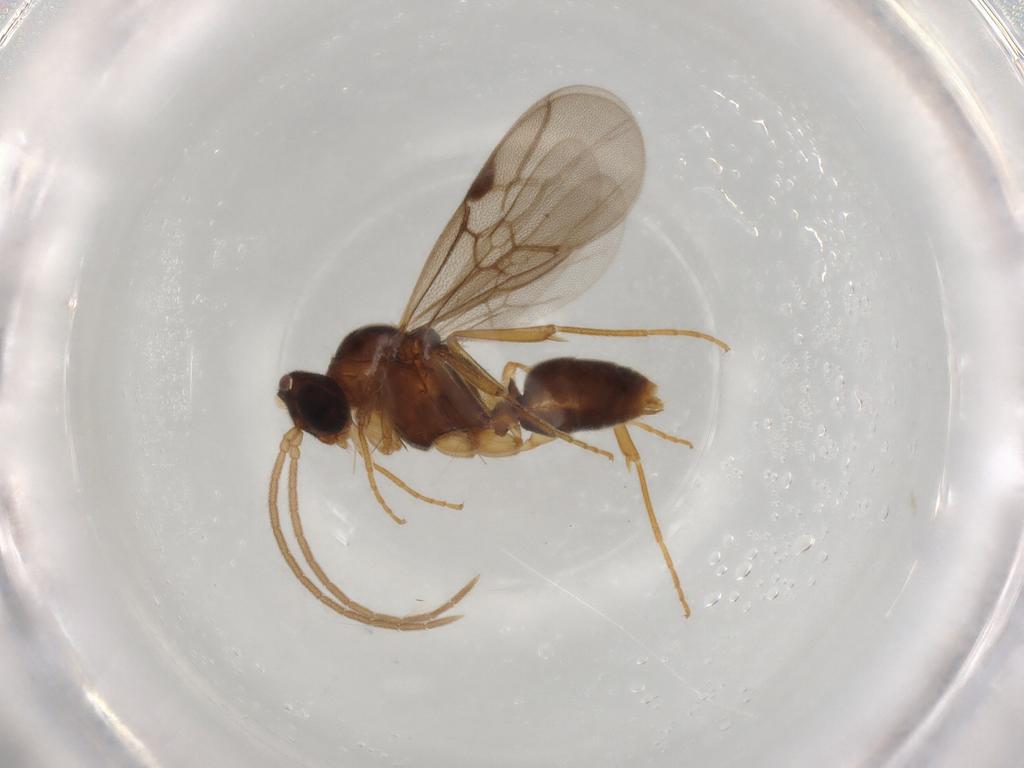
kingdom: Animalia
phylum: Arthropoda
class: Insecta
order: Hymenoptera
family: Formicidae
